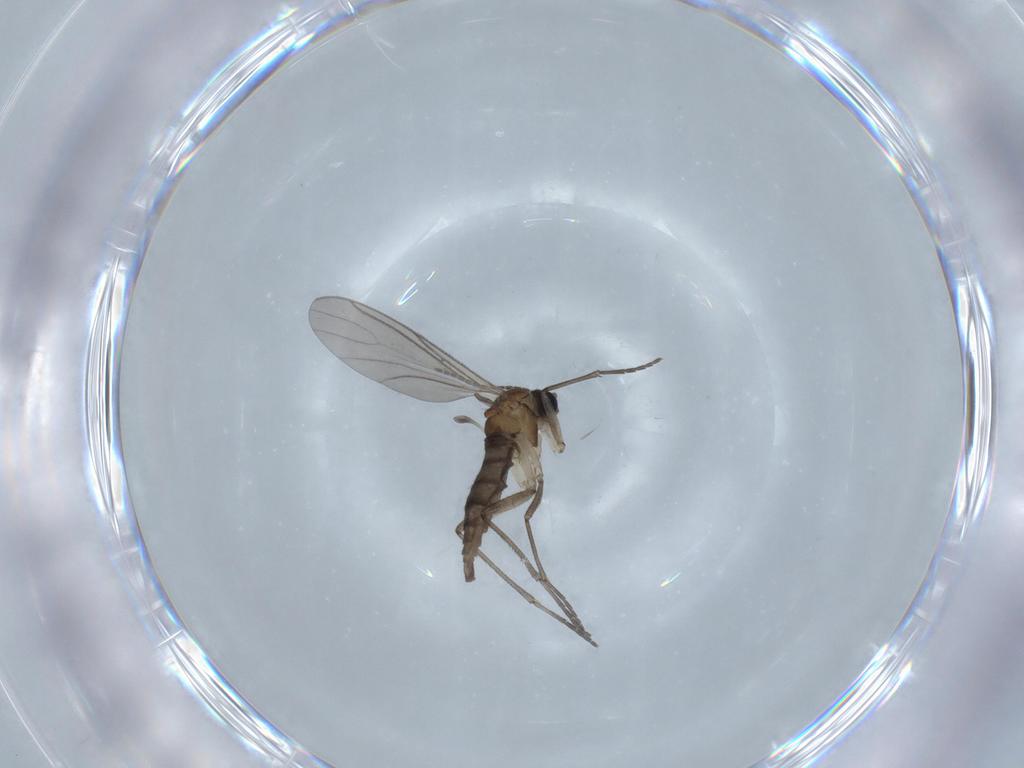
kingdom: Animalia
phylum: Arthropoda
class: Insecta
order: Diptera
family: Sciaridae
